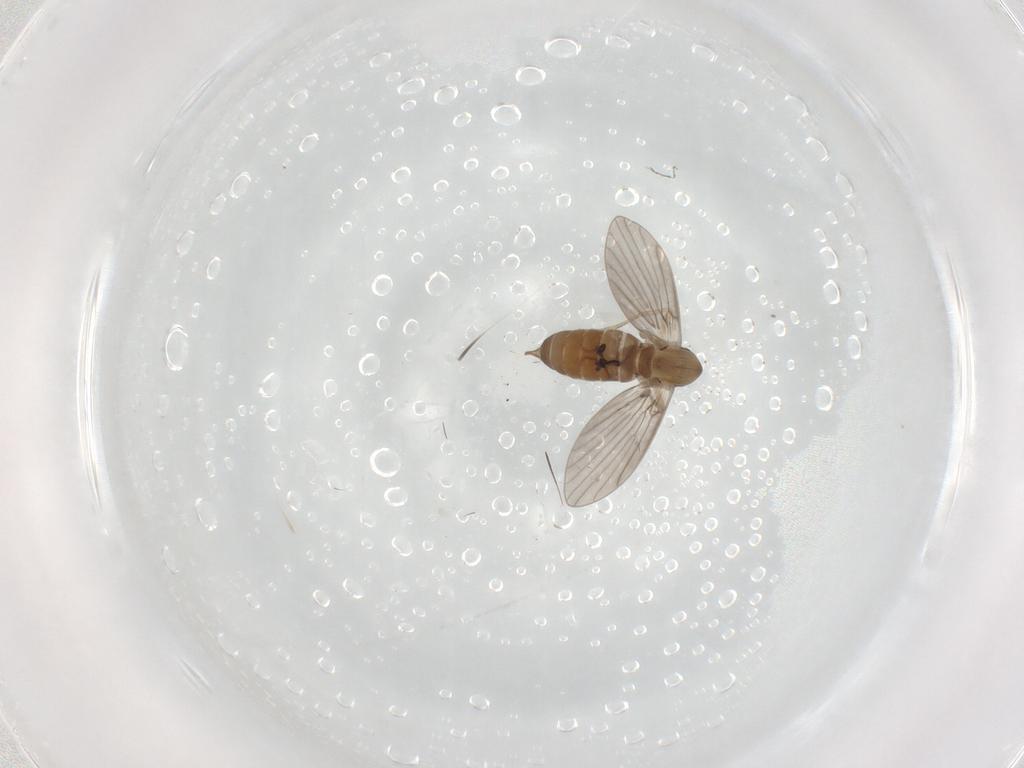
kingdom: Animalia
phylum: Arthropoda
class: Insecta
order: Diptera
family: Psychodidae
